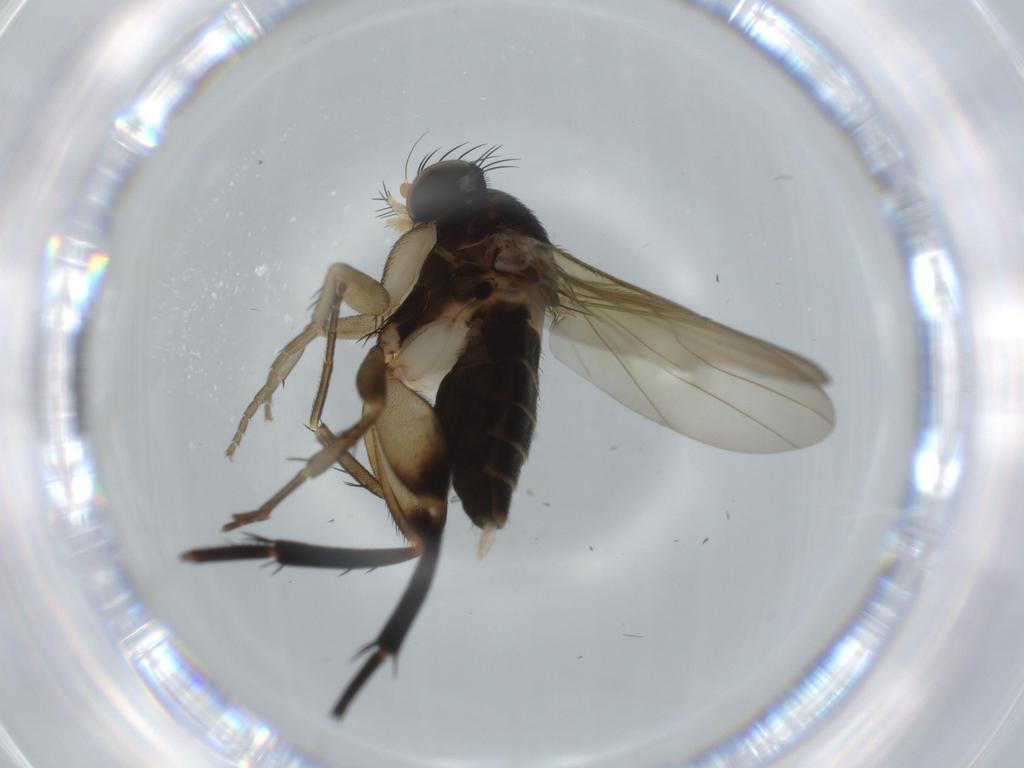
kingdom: Animalia
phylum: Arthropoda
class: Insecta
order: Diptera
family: Phoridae
